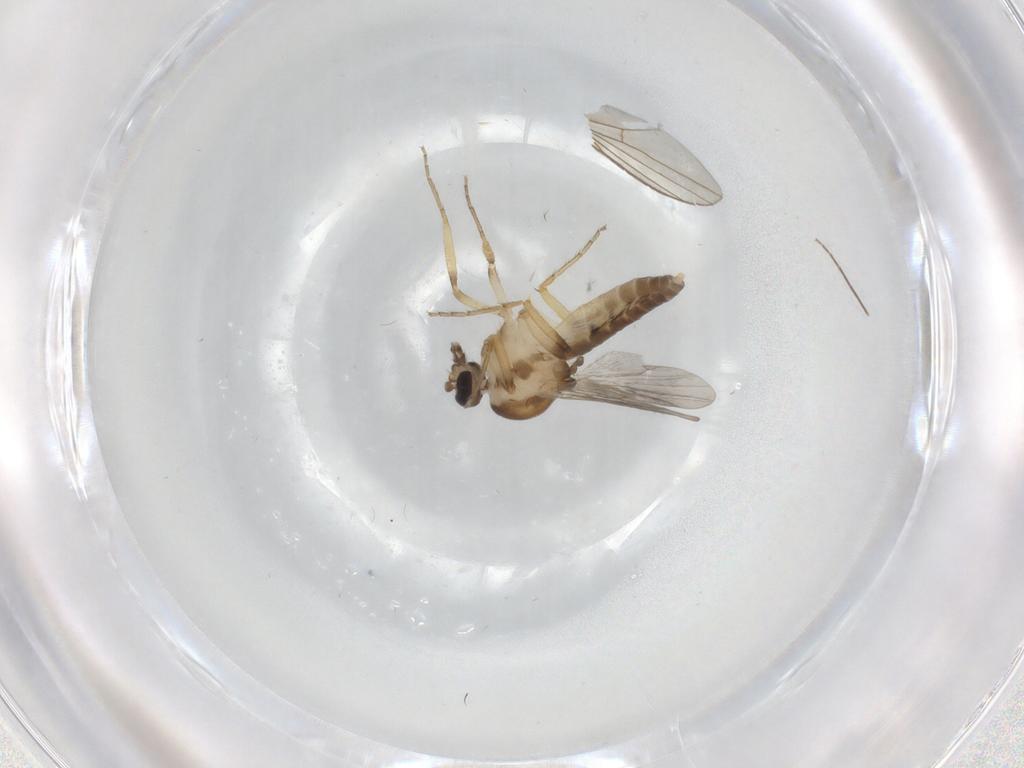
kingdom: Animalia
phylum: Arthropoda
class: Insecta
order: Diptera
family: Ceratopogonidae
